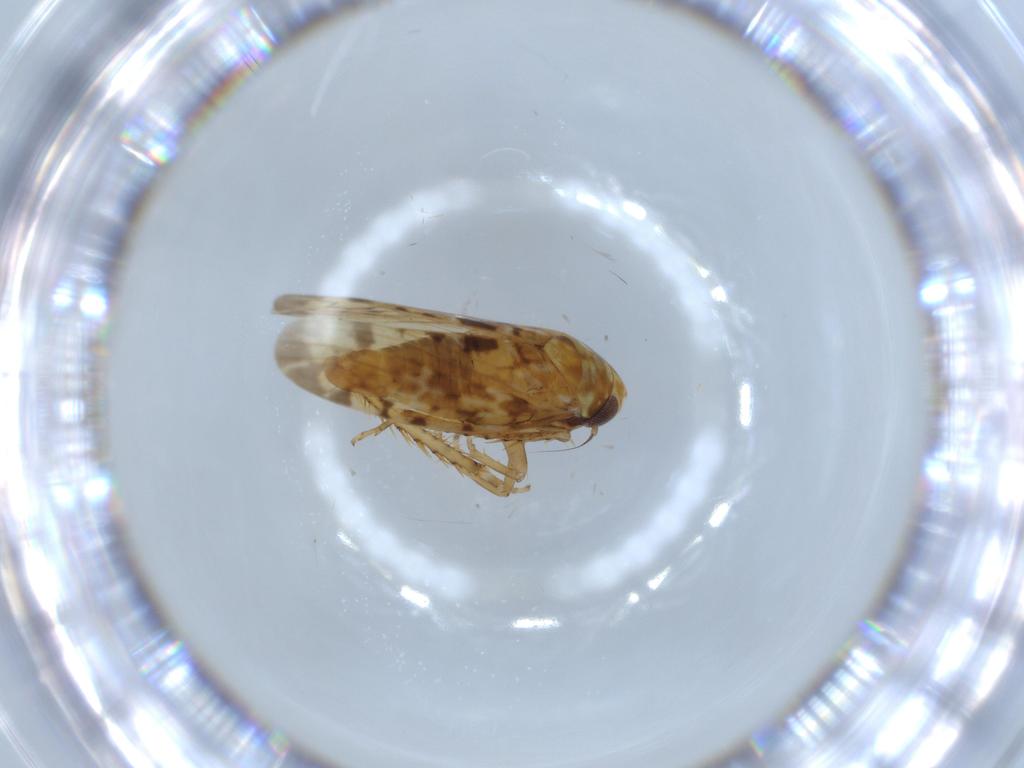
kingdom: Animalia
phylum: Arthropoda
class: Insecta
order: Hemiptera
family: Cicadellidae
